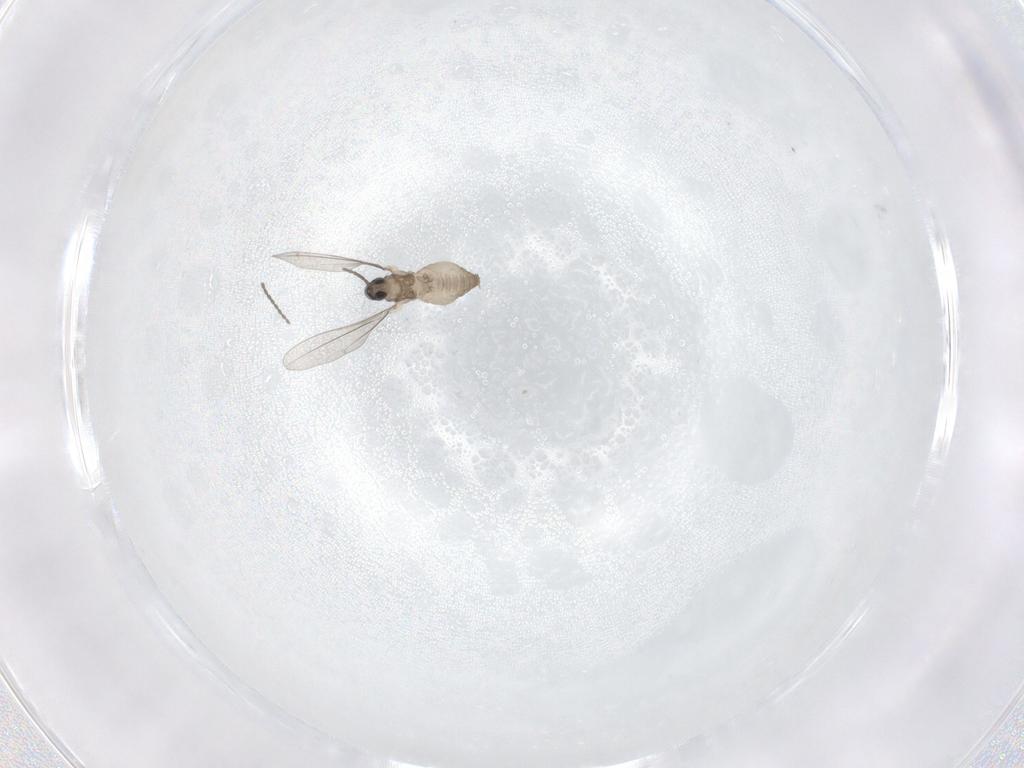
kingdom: Animalia
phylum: Arthropoda
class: Insecta
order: Diptera
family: Cecidomyiidae
